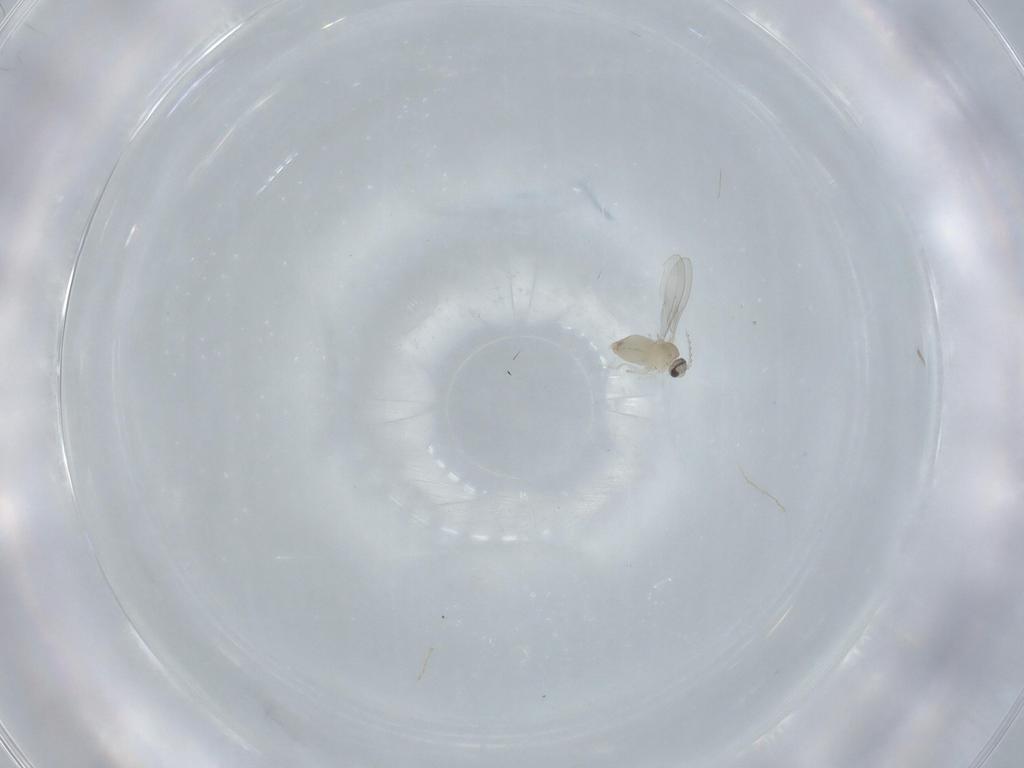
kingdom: Animalia
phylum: Arthropoda
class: Insecta
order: Diptera
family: Cecidomyiidae
